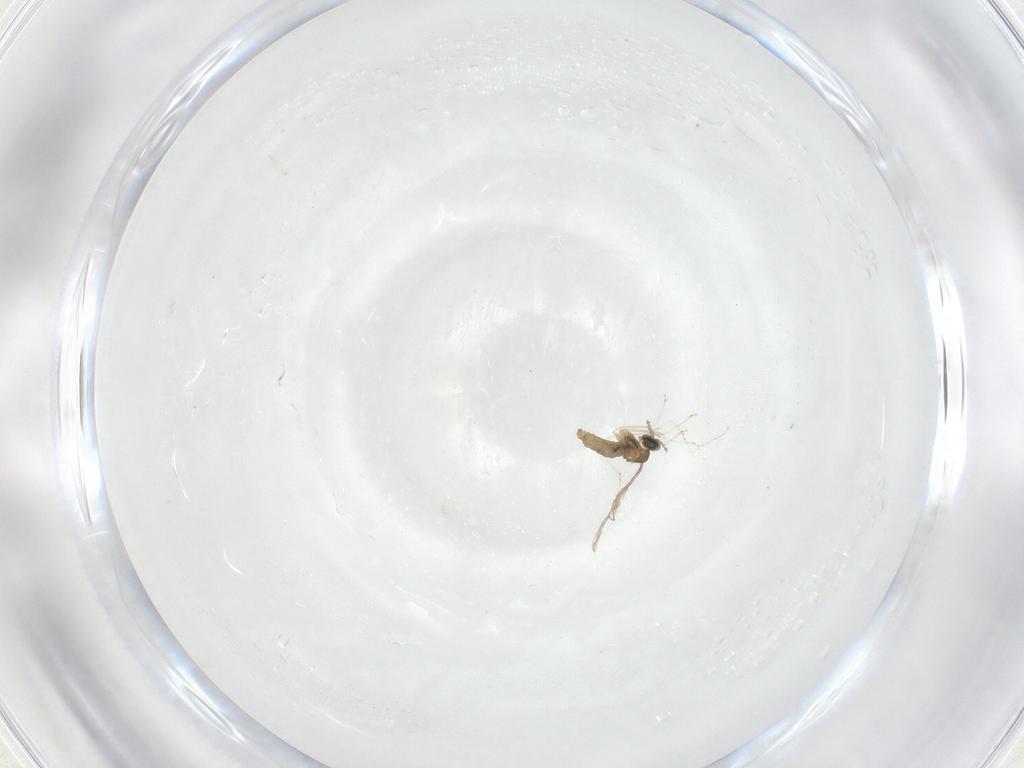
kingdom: Animalia
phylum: Arthropoda
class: Insecta
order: Diptera
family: Cecidomyiidae
